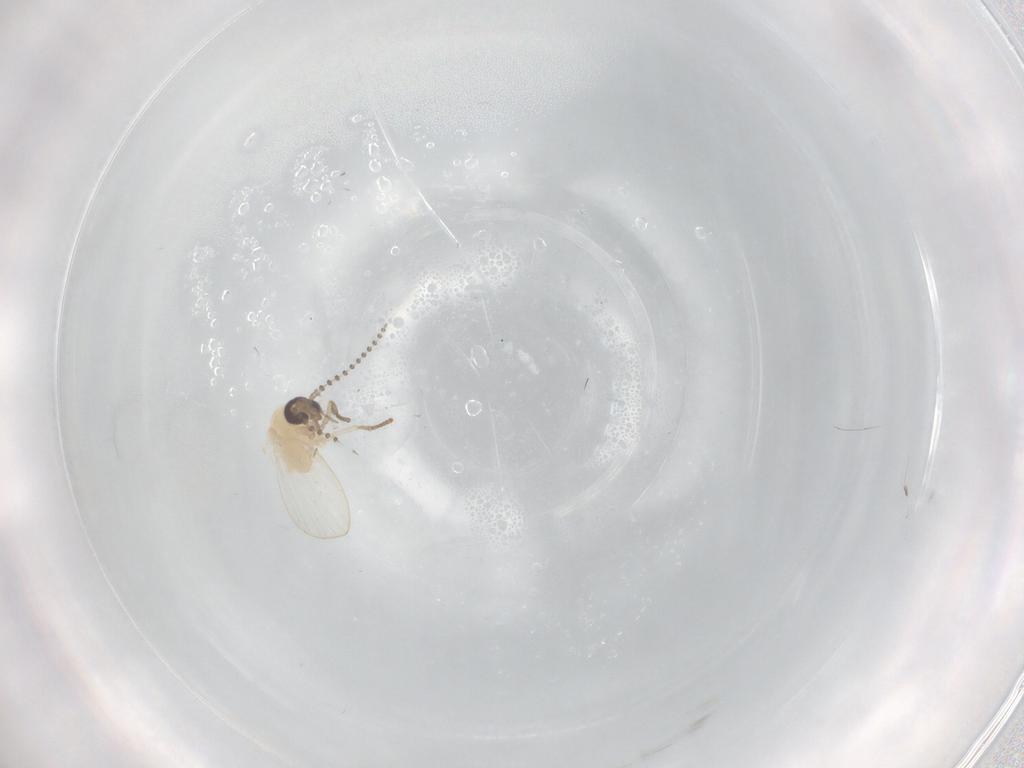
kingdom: Animalia
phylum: Arthropoda
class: Insecta
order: Diptera
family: Psychodidae
